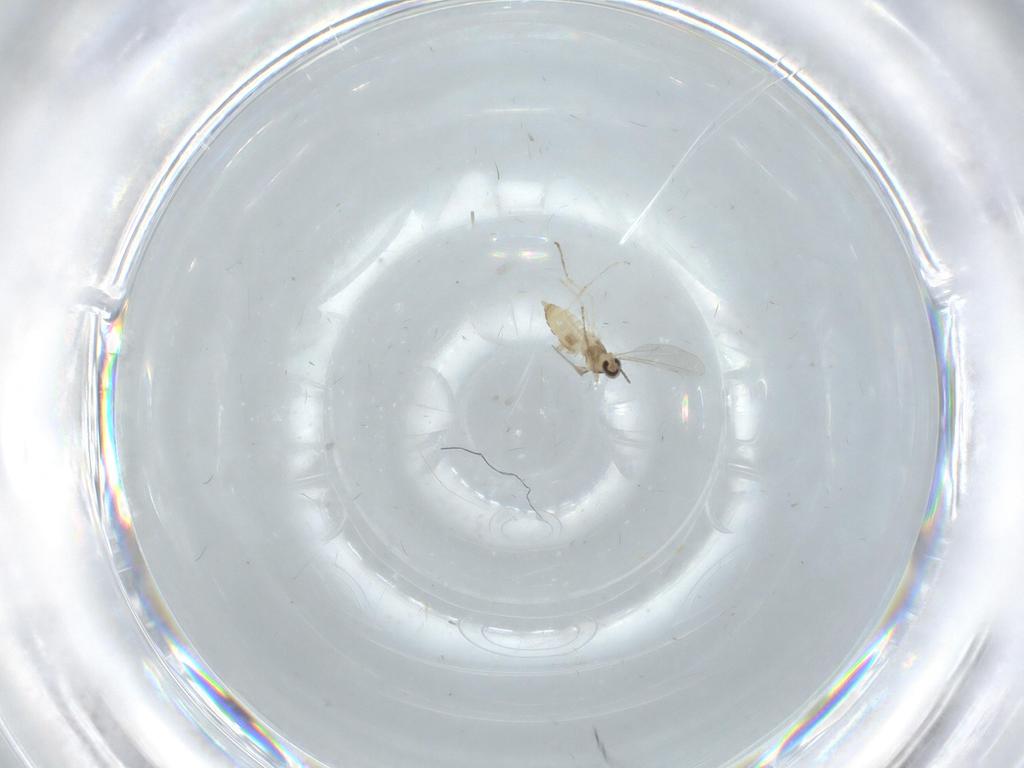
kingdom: Animalia
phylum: Arthropoda
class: Insecta
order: Diptera
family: Cecidomyiidae
